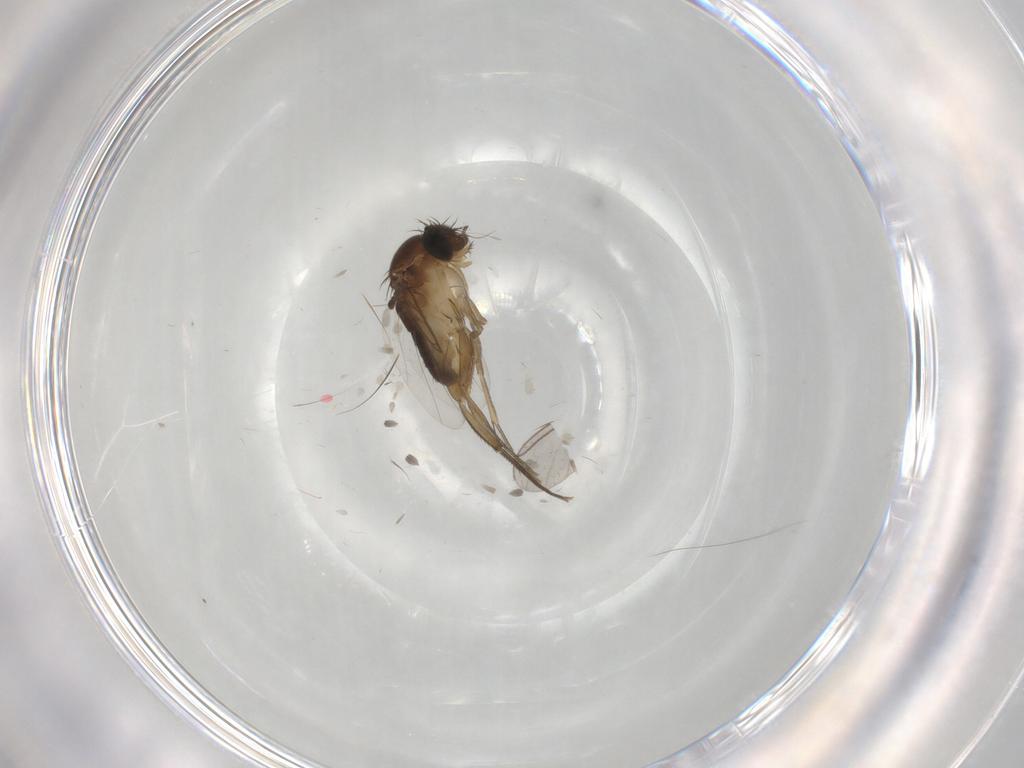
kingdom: Animalia
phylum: Arthropoda
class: Insecta
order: Diptera
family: Phoridae
